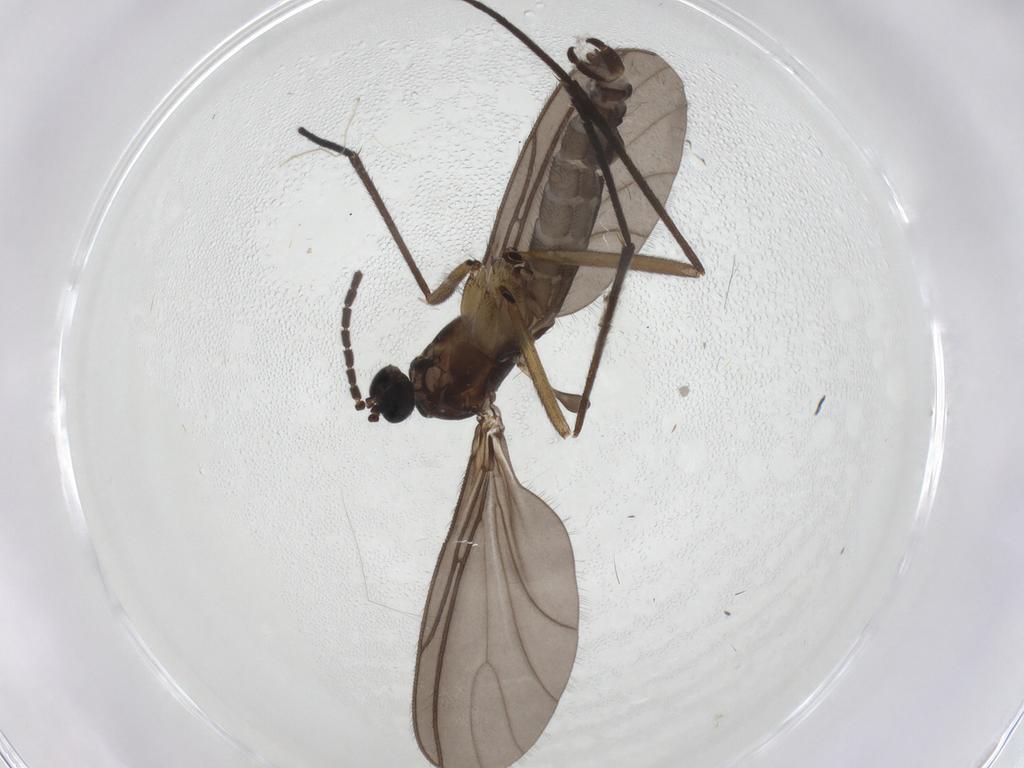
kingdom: Animalia
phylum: Arthropoda
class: Insecta
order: Diptera
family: Sciaridae
